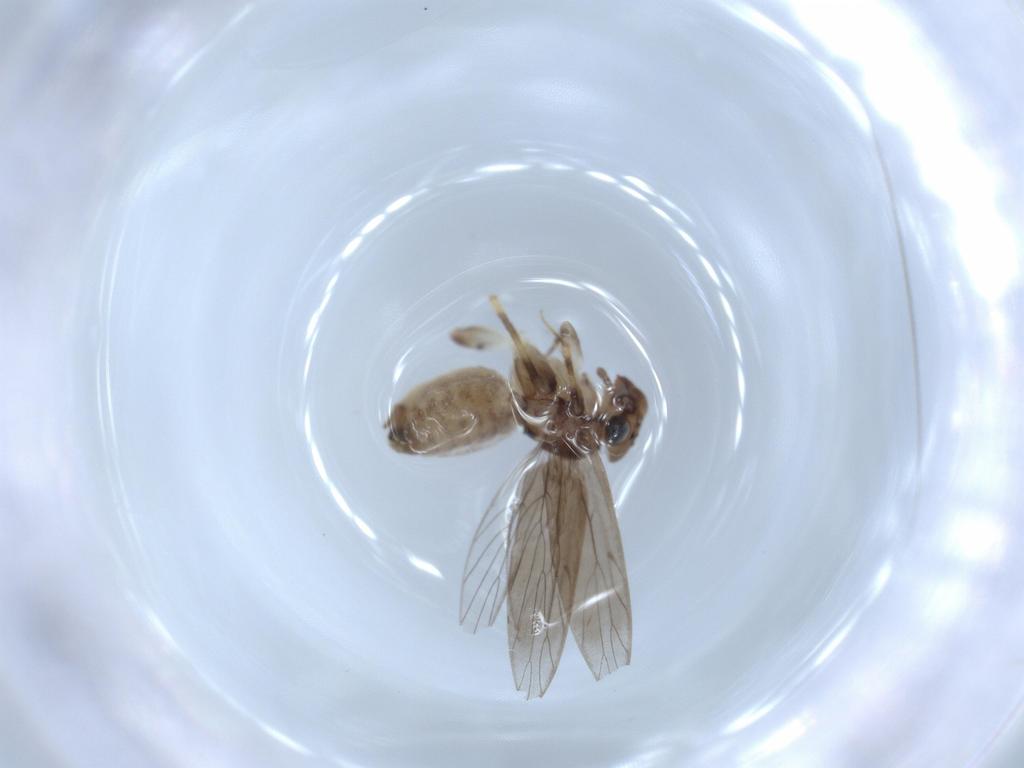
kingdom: Animalia
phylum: Arthropoda
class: Insecta
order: Psocodea
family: Lepidopsocidae
